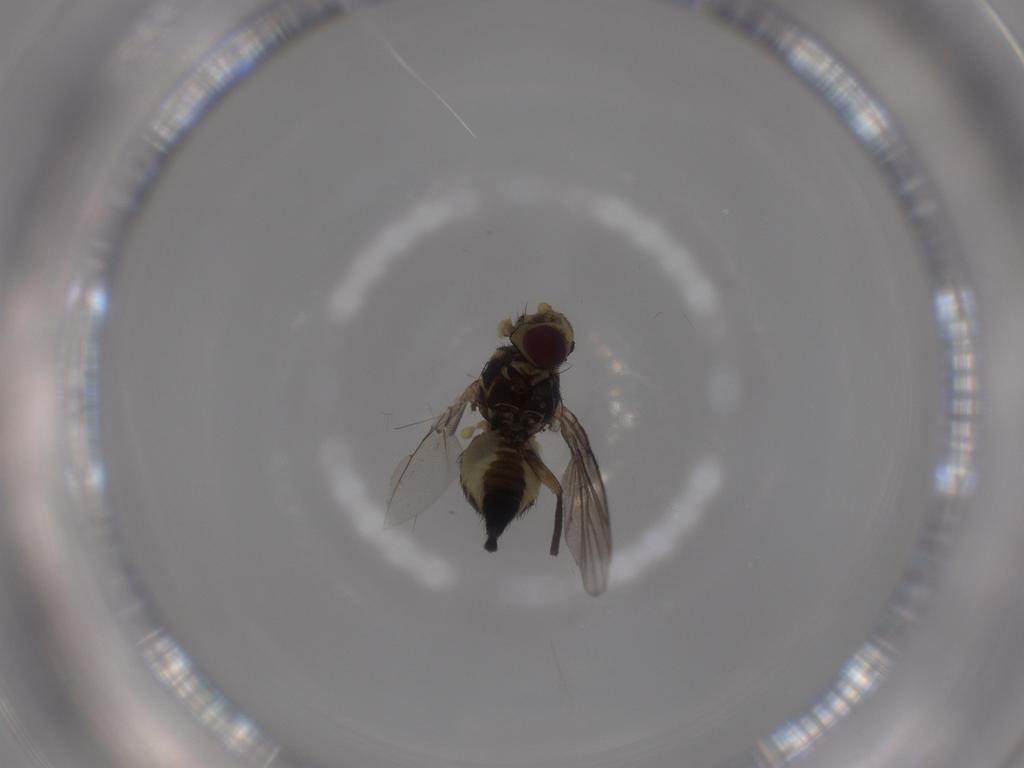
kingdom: Animalia
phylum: Arthropoda
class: Insecta
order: Diptera
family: Agromyzidae
